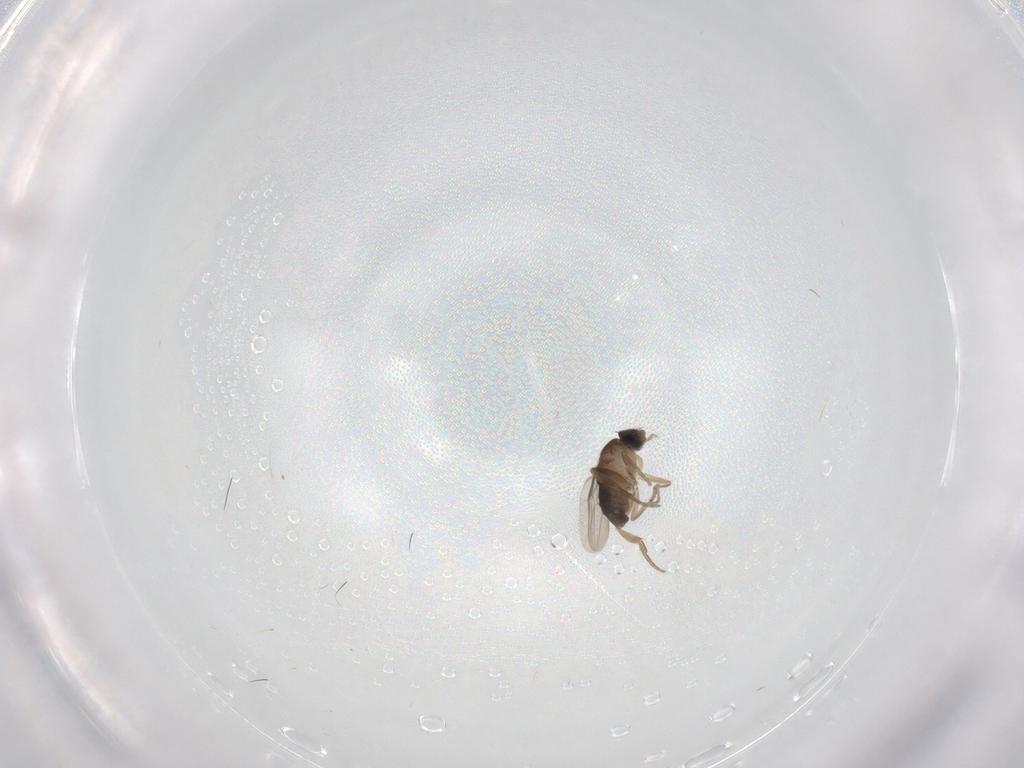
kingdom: Animalia
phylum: Arthropoda
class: Insecta
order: Diptera
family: Phoridae
